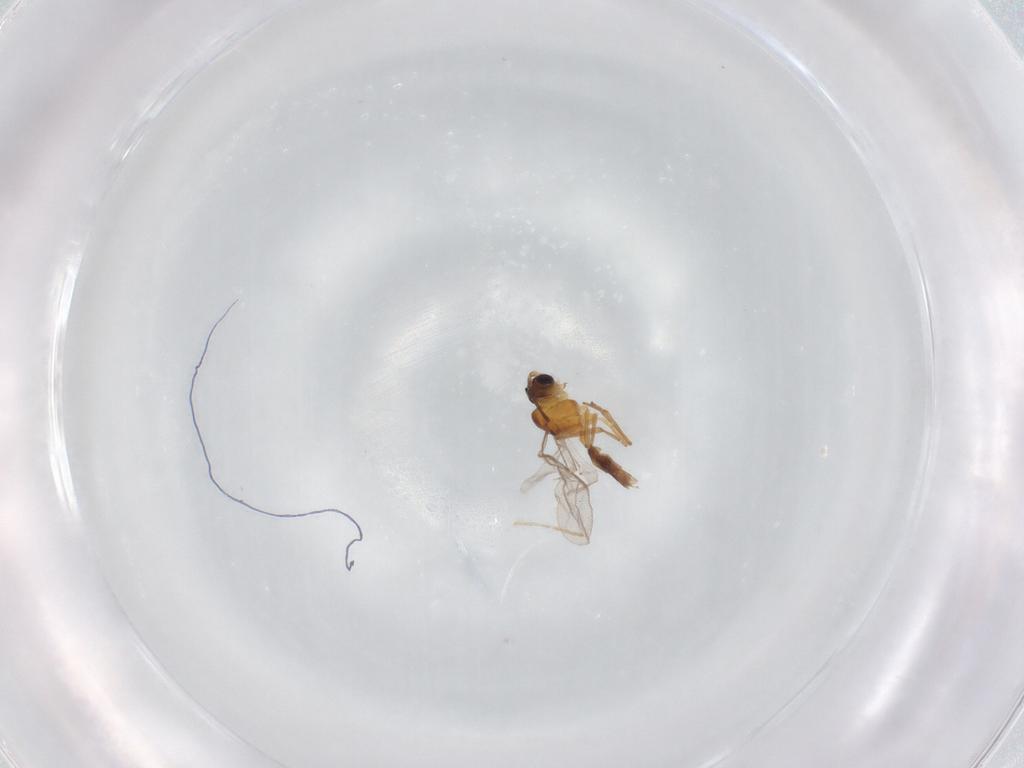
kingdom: Animalia
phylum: Arthropoda
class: Insecta
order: Hymenoptera
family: Braconidae
